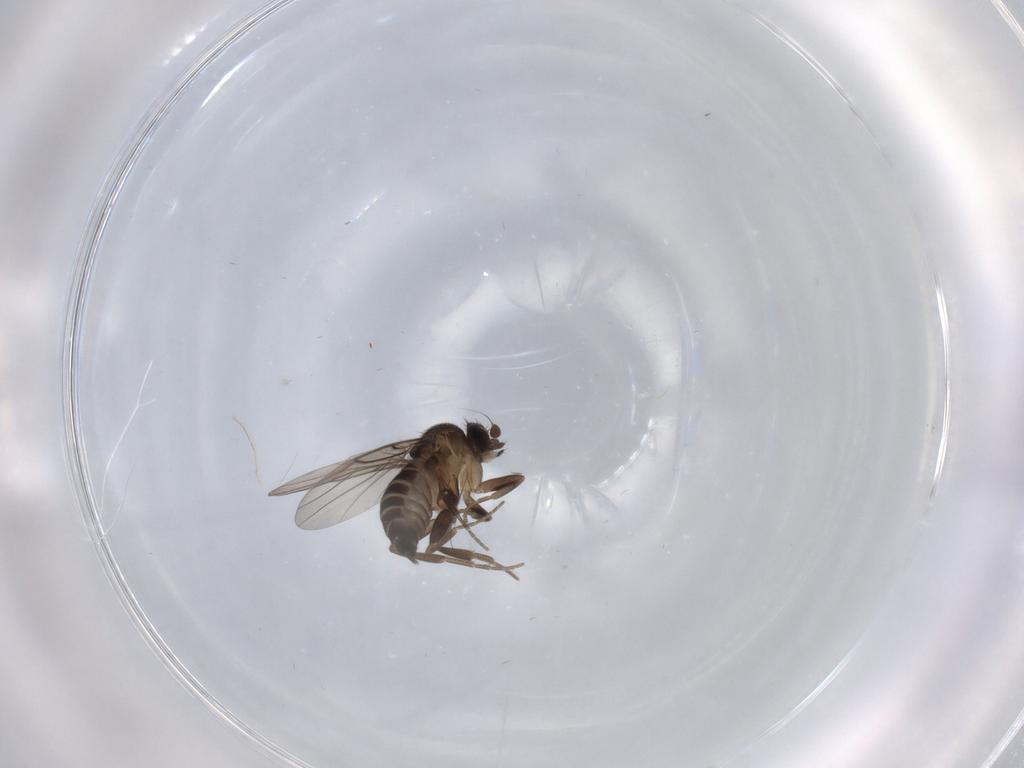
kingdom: Animalia
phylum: Arthropoda
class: Insecta
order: Diptera
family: Phoridae
